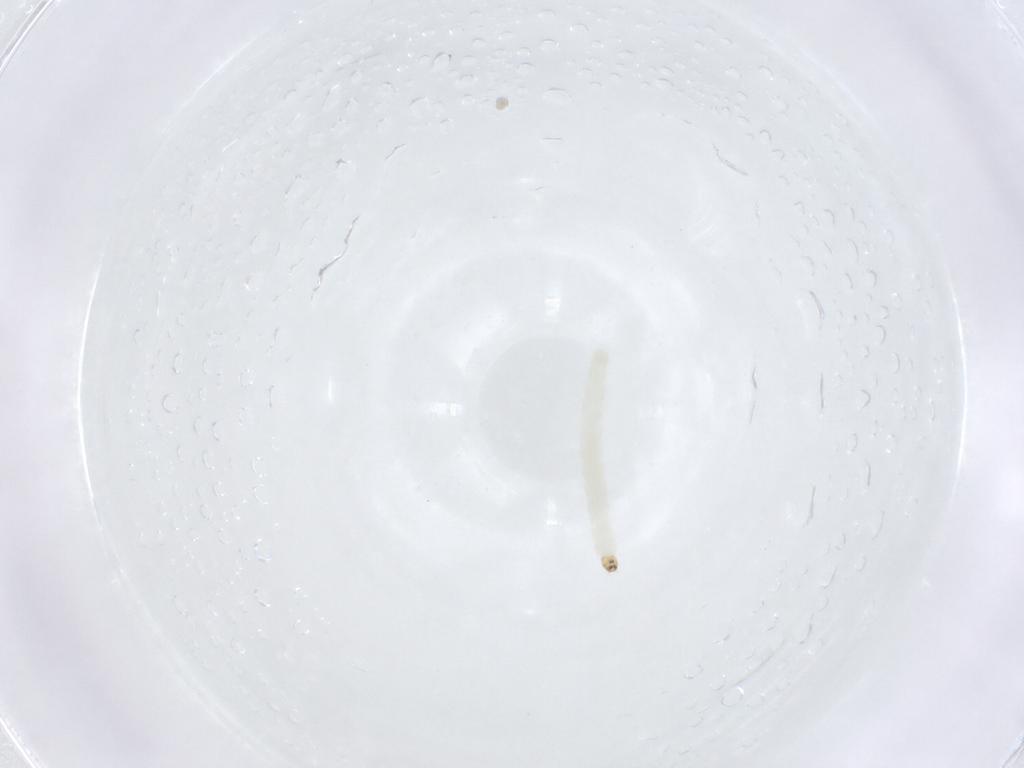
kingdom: Animalia
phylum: Arthropoda
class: Insecta
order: Diptera
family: Chironomidae
